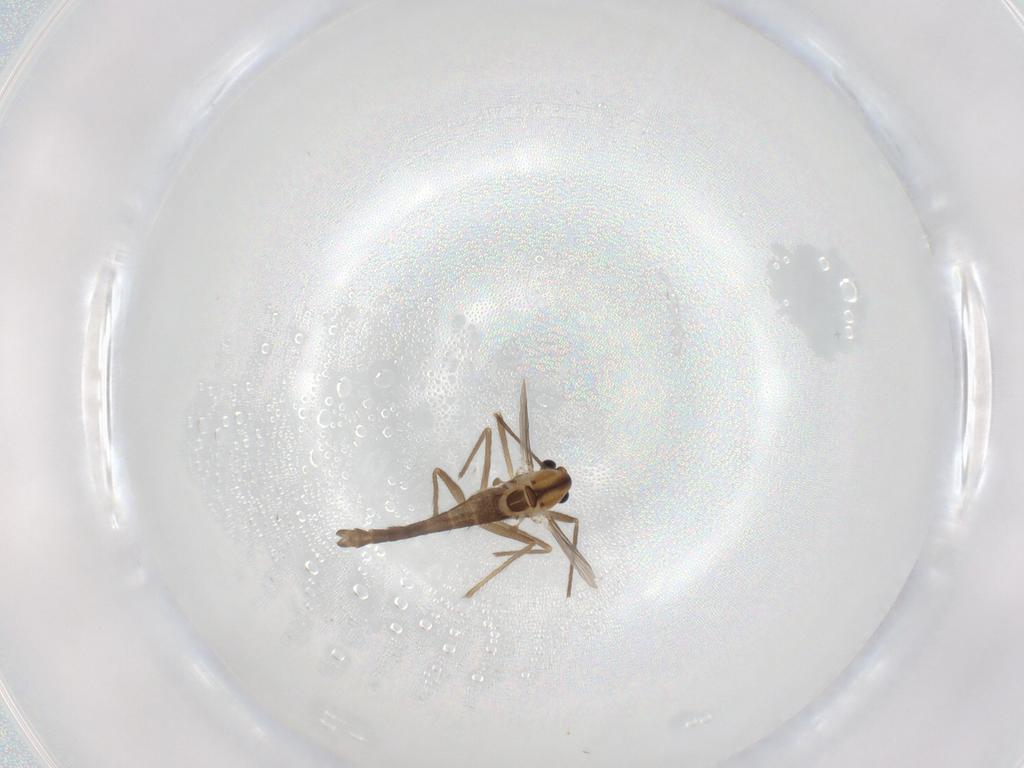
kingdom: Animalia
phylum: Arthropoda
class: Insecta
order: Diptera
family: Chironomidae
